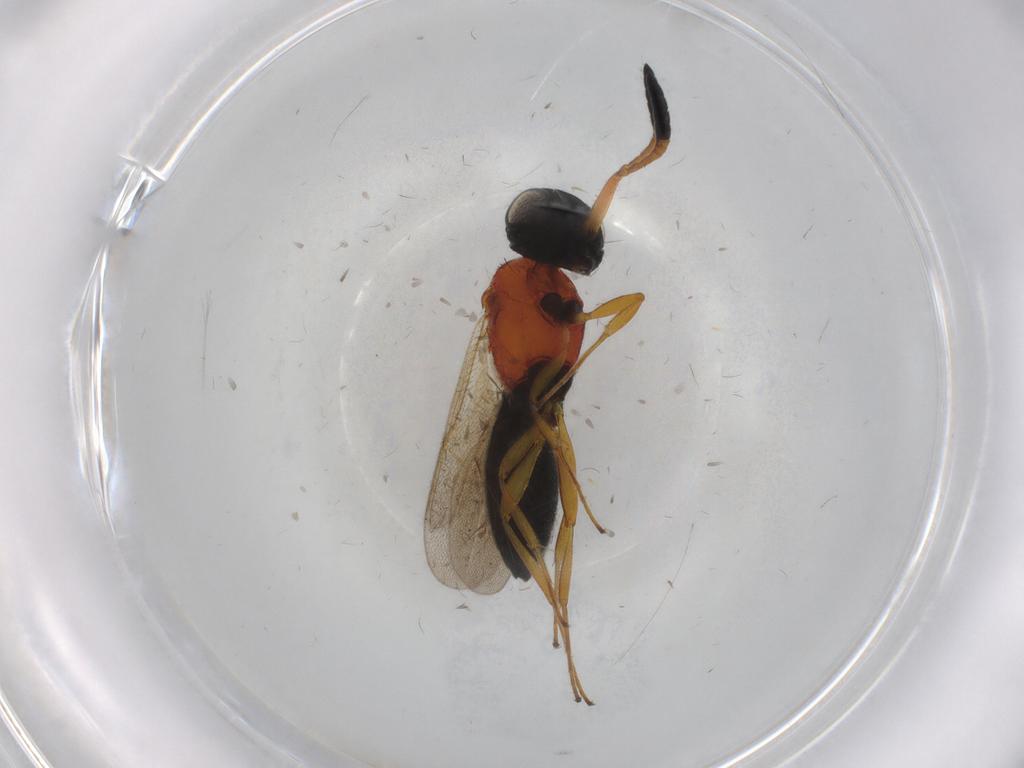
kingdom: Animalia
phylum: Arthropoda
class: Insecta
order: Hymenoptera
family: Scelionidae
